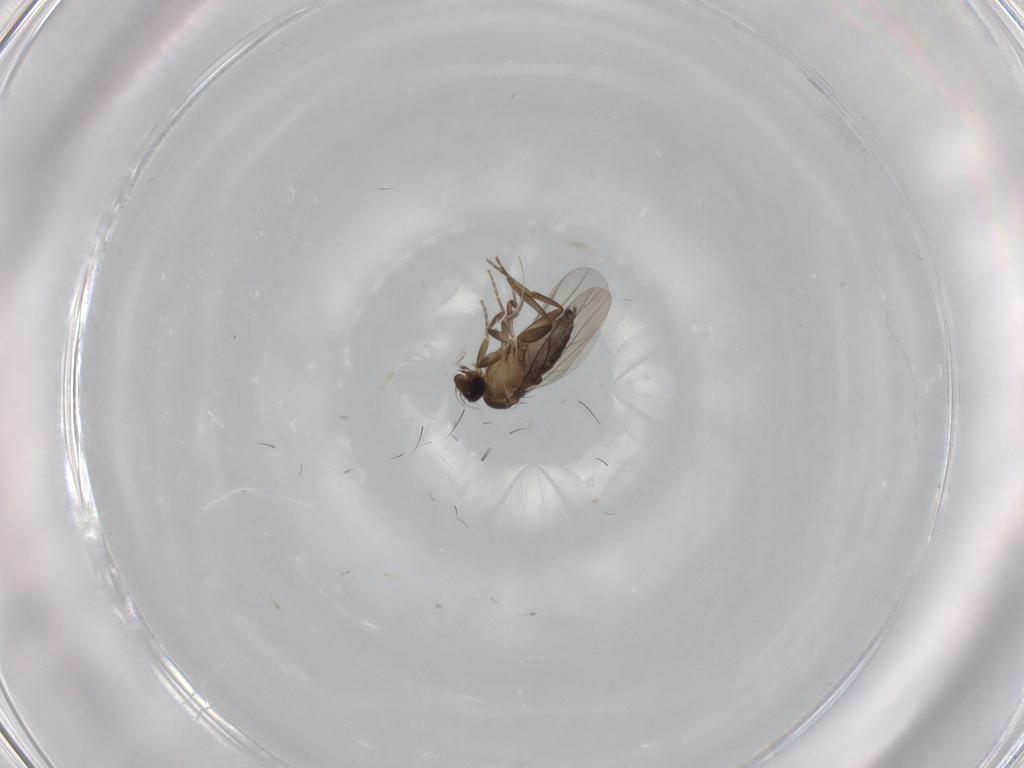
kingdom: Animalia
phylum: Arthropoda
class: Insecta
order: Diptera
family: Phoridae
